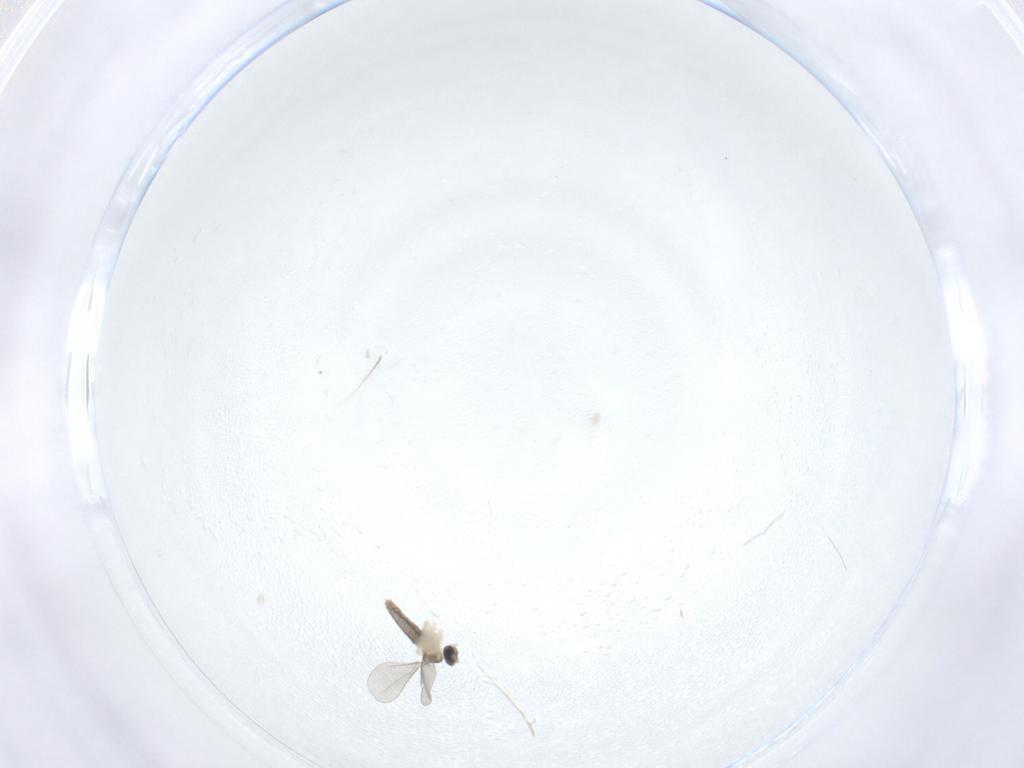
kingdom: Animalia
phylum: Arthropoda
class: Insecta
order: Diptera
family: Cecidomyiidae
